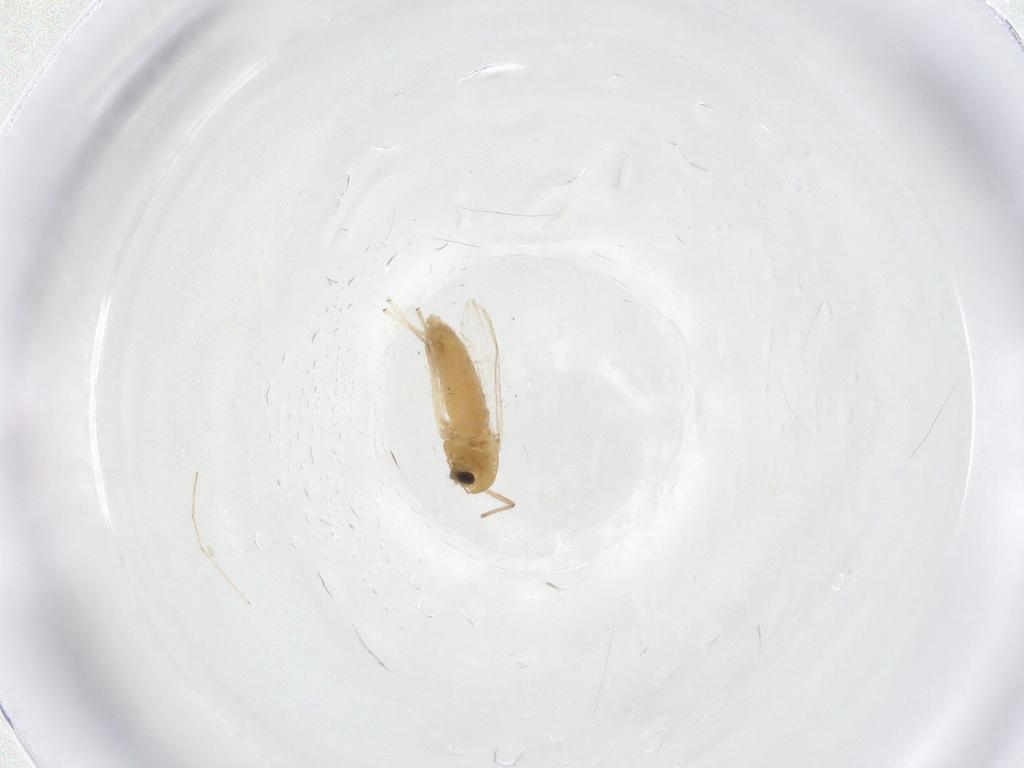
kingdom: Animalia
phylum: Arthropoda
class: Insecta
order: Diptera
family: Chironomidae
